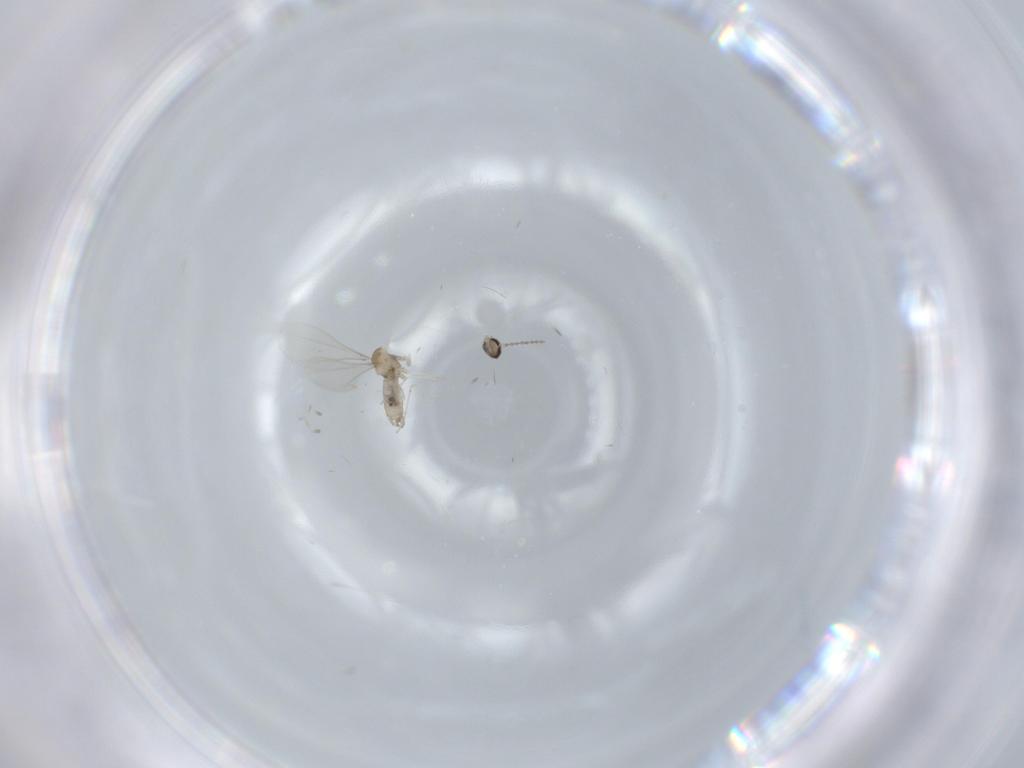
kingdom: Animalia
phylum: Arthropoda
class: Insecta
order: Diptera
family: Cecidomyiidae
